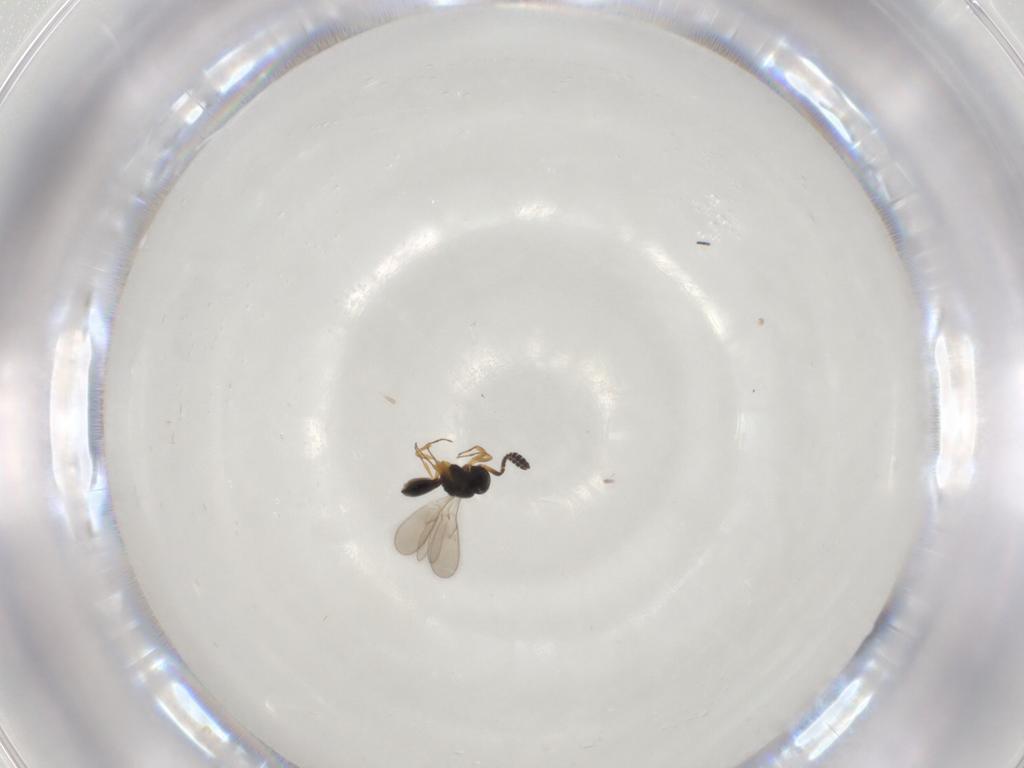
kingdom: Animalia
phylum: Arthropoda
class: Insecta
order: Hymenoptera
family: Scelionidae
